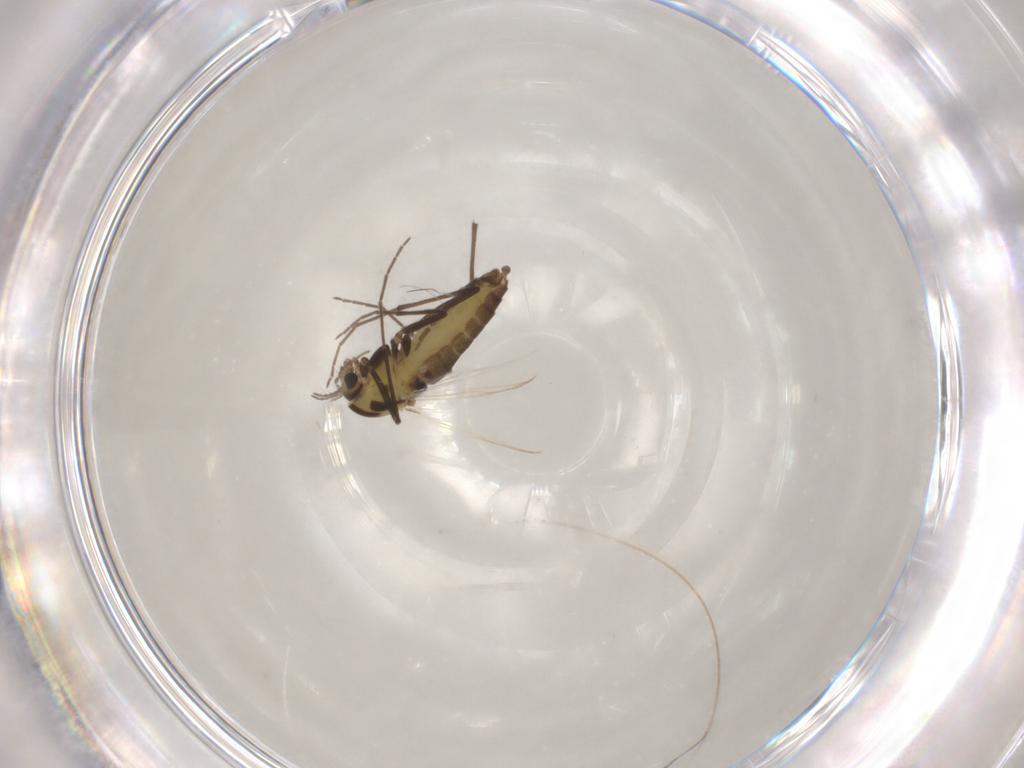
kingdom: Animalia
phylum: Arthropoda
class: Insecta
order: Diptera
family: Chironomidae
